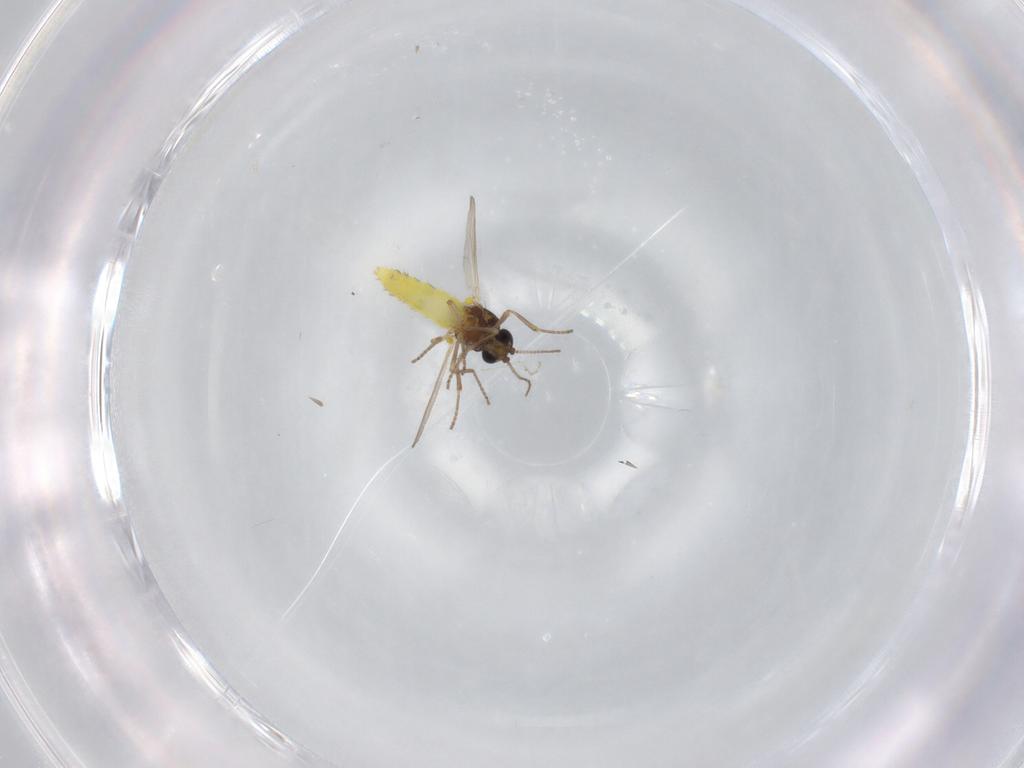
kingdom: Animalia
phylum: Arthropoda
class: Insecta
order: Diptera
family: Ceratopogonidae
